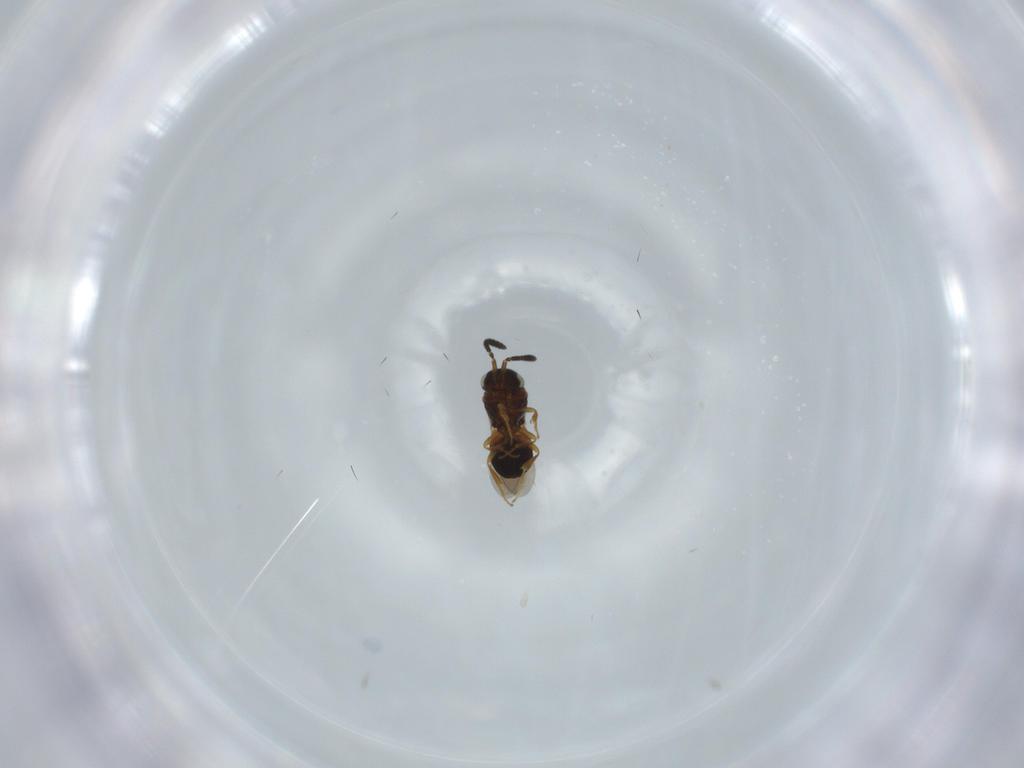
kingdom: Animalia
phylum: Arthropoda
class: Insecta
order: Hymenoptera
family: Scelionidae
